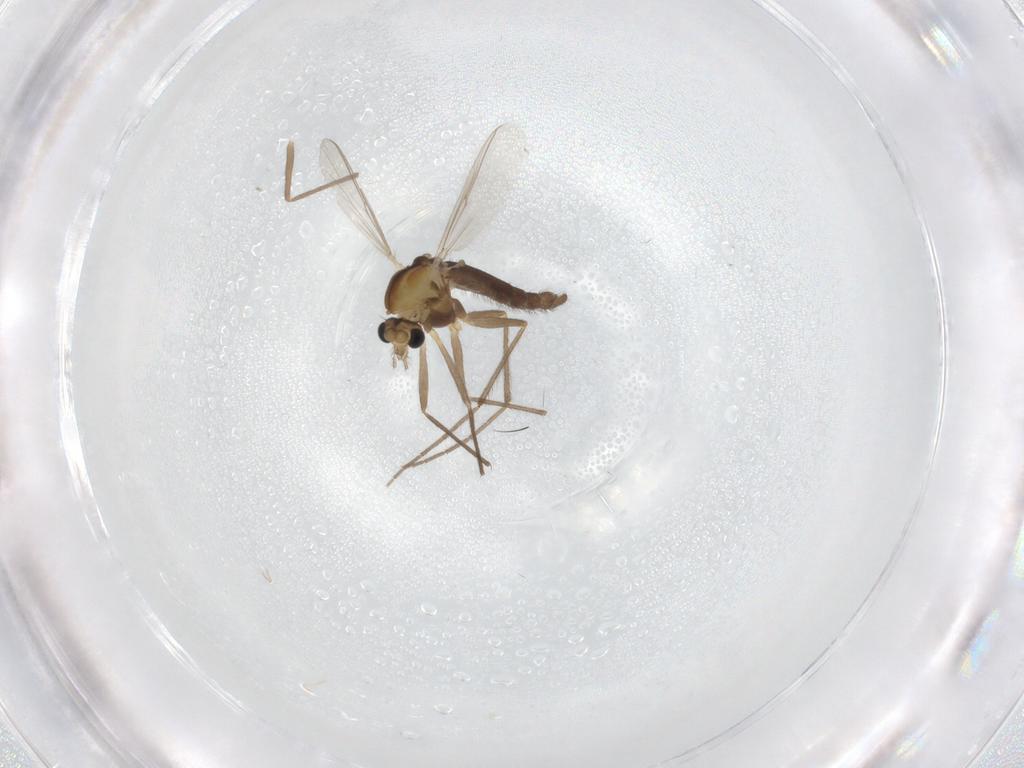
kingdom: Animalia
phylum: Arthropoda
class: Insecta
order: Diptera
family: Chironomidae
